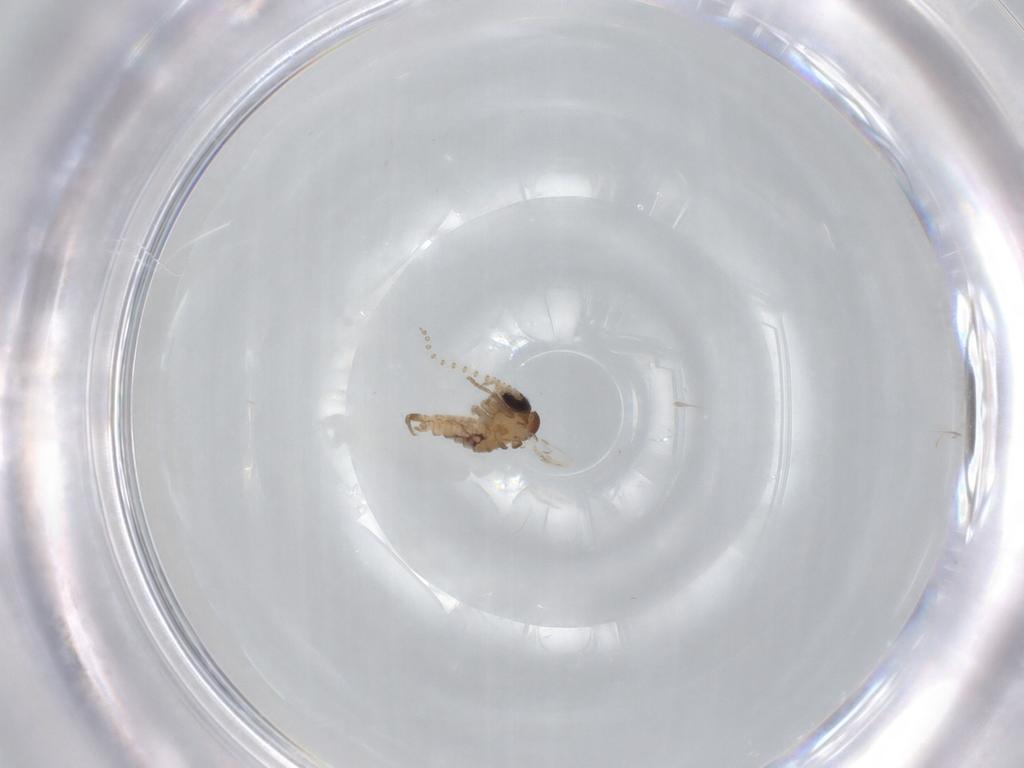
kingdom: Animalia
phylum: Arthropoda
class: Insecta
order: Diptera
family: Psychodidae
